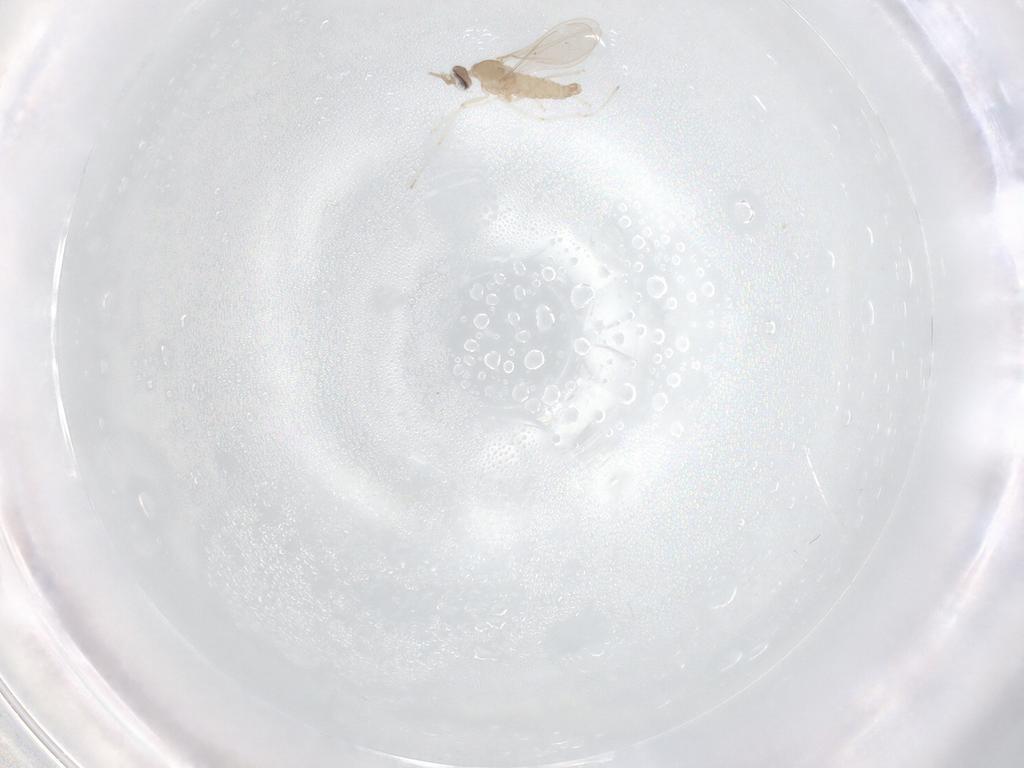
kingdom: Animalia
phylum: Arthropoda
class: Insecta
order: Diptera
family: Cecidomyiidae
